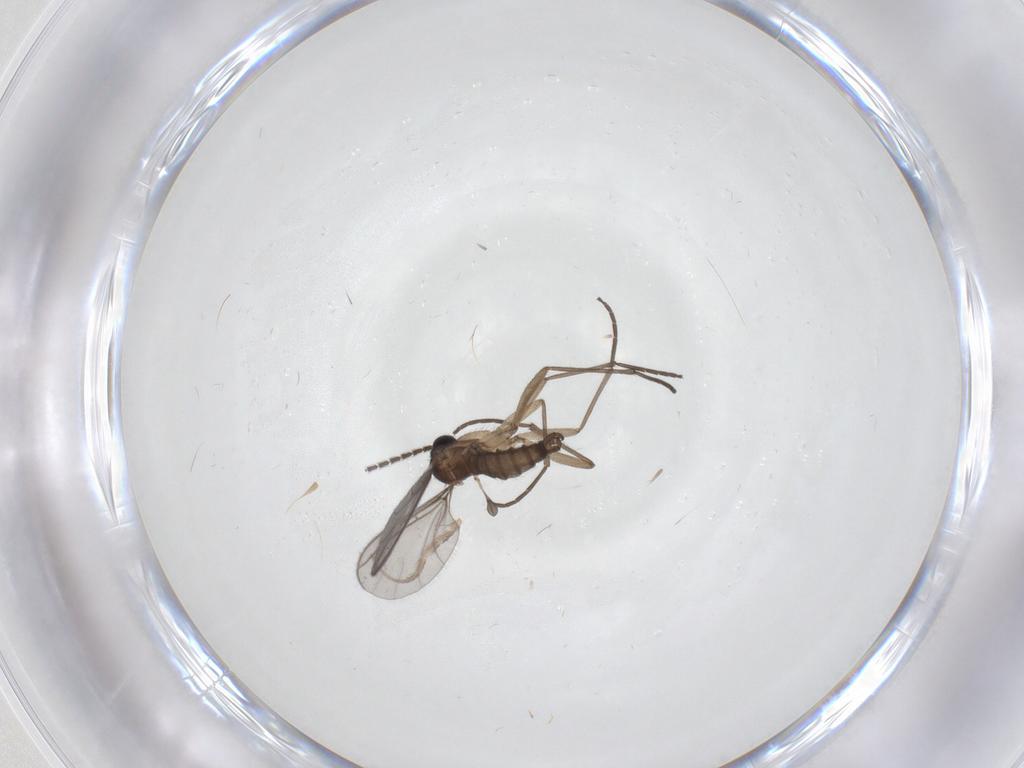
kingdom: Animalia
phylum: Arthropoda
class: Insecta
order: Diptera
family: Sciaridae
